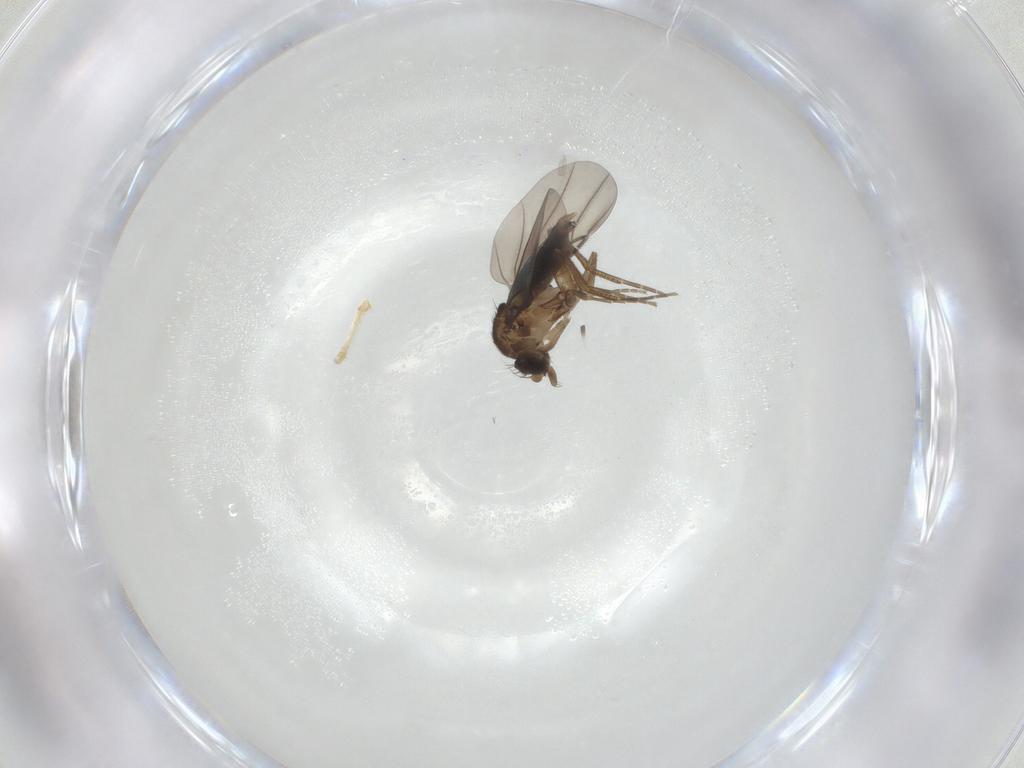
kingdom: Animalia
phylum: Arthropoda
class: Insecta
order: Diptera
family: Phoridae
